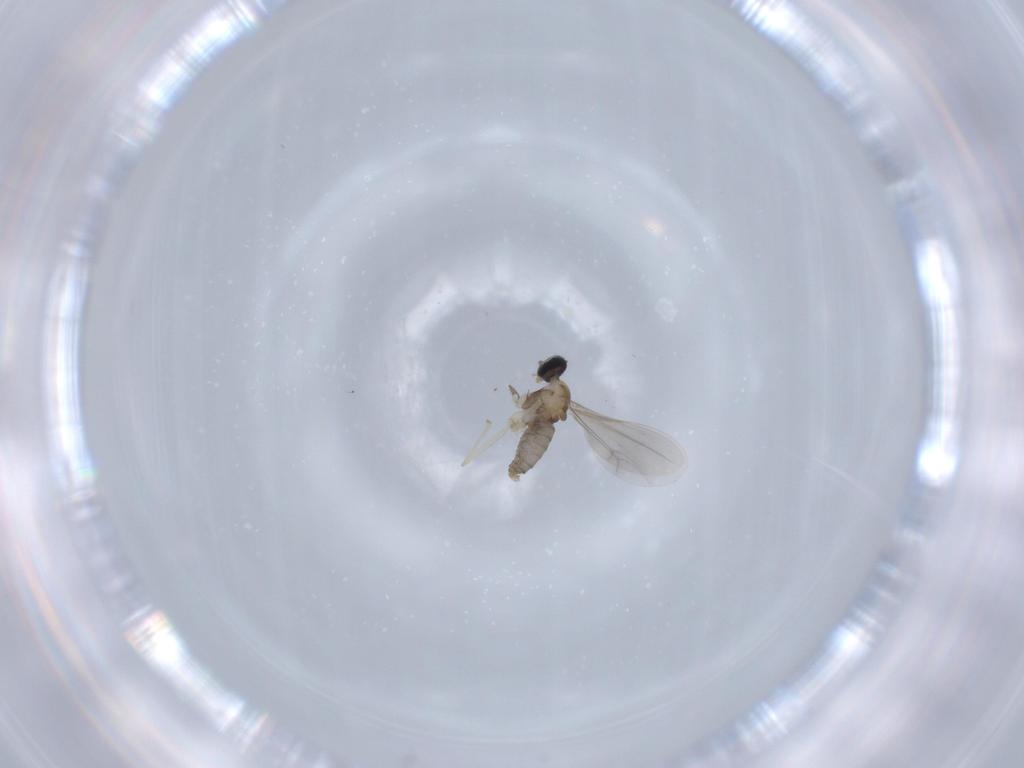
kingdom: Animalia
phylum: Arthropoda
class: Insecta
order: Diptera
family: Cecidomyiidae
